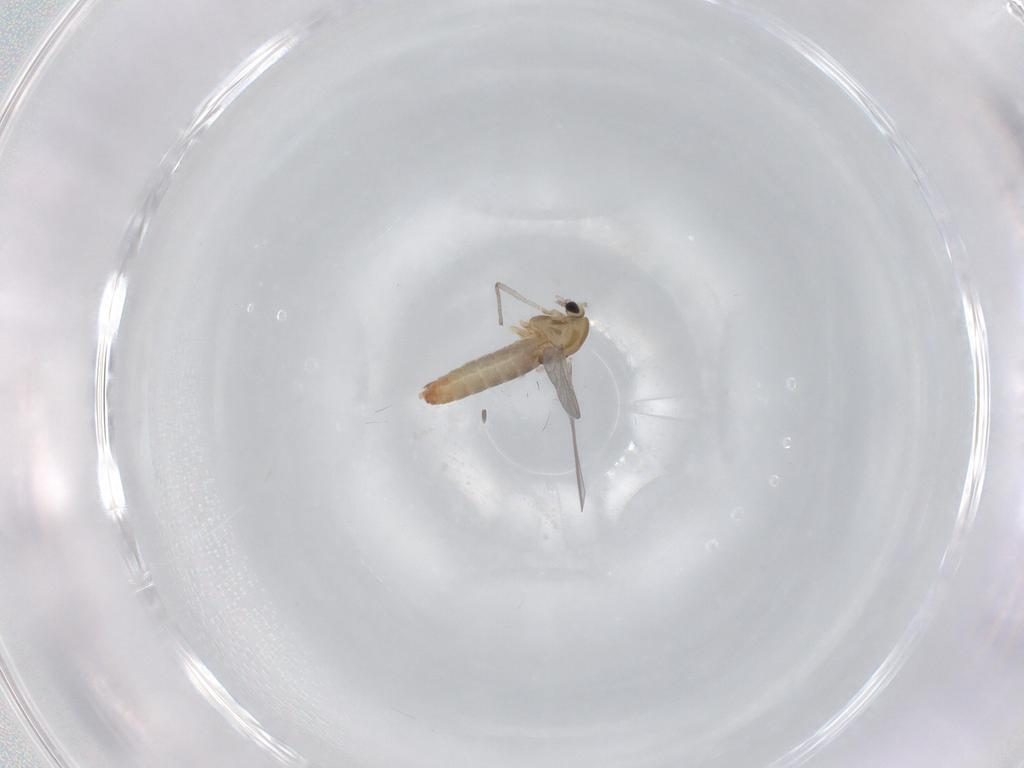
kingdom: Animalia
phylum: Arthropoda
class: Insecta
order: Diptera
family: Chironomidae
